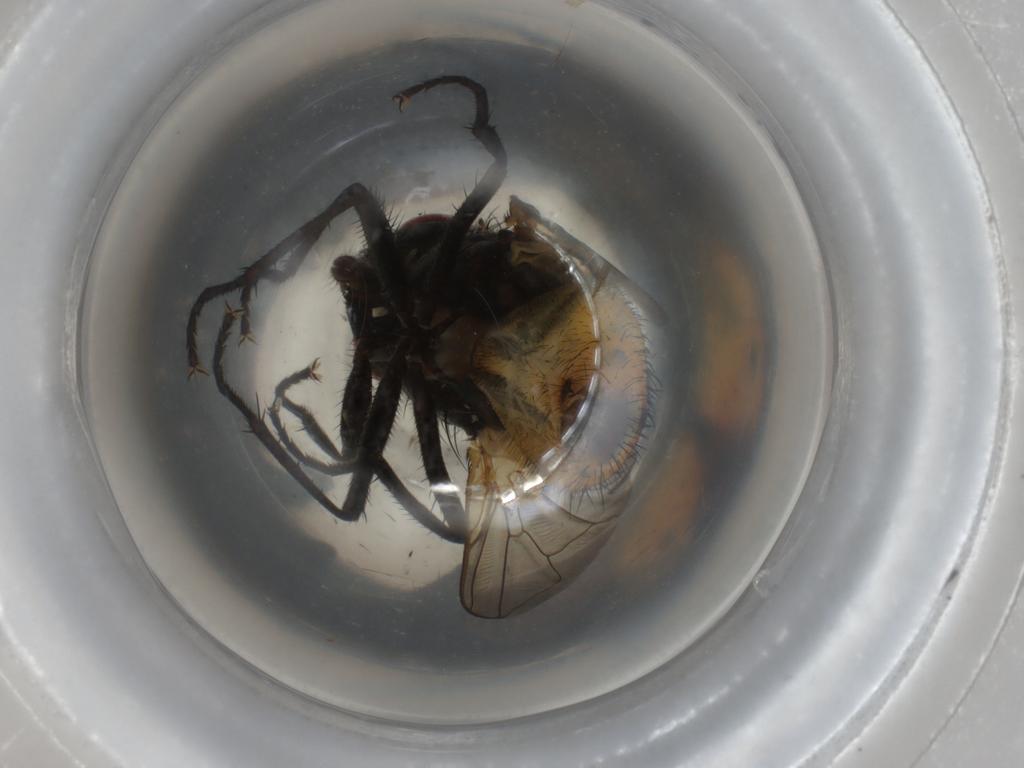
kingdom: Animalia
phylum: Arthropoda
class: Insecta
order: Diptera
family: Muscidae
